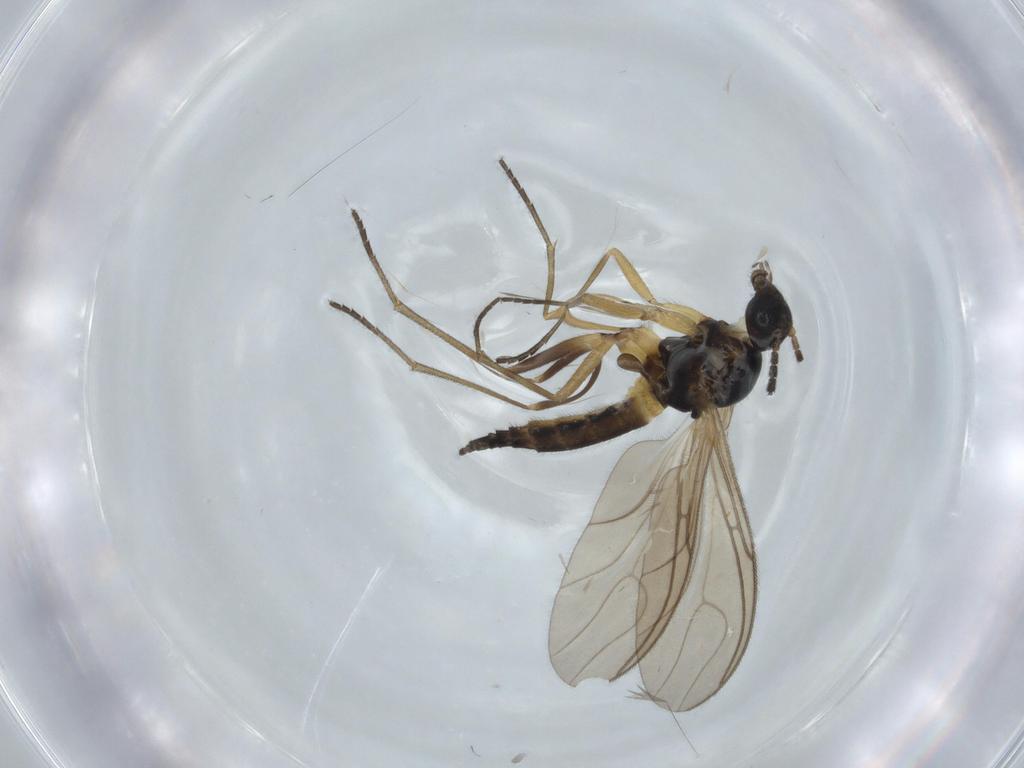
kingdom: Animalia
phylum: Arthropoda
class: Insecta
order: Diptera
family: Sciaridae
